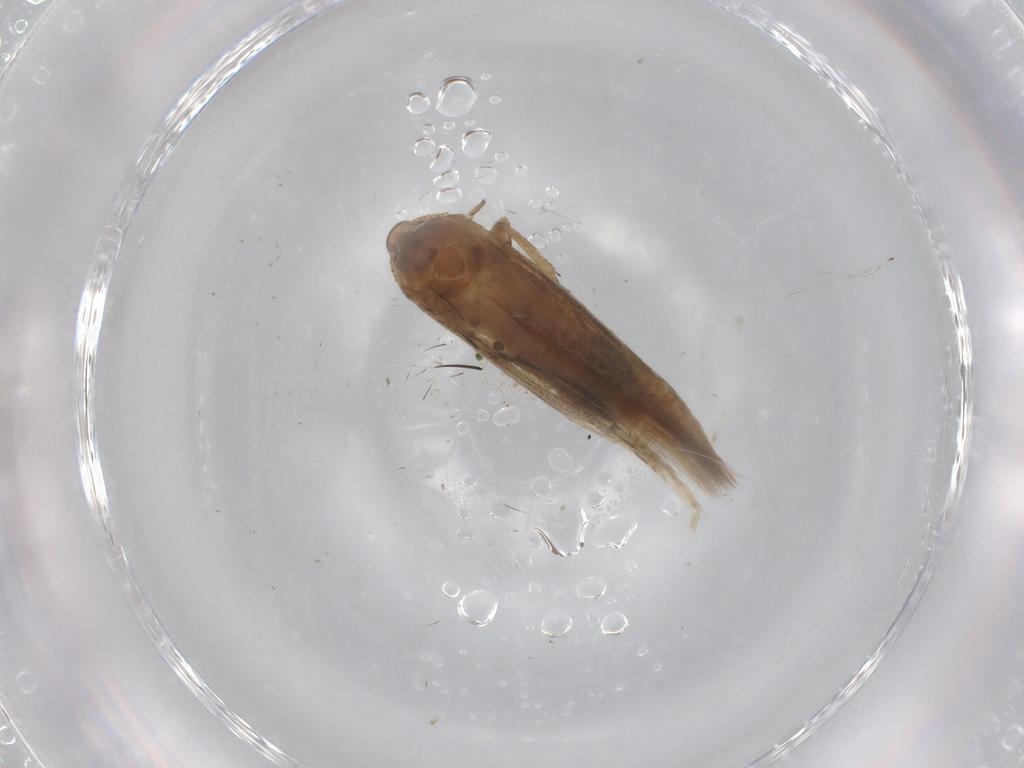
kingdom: Animalia
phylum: Arthropoda
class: Insecta
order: Lepidoptera
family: Cosmopterigidae
